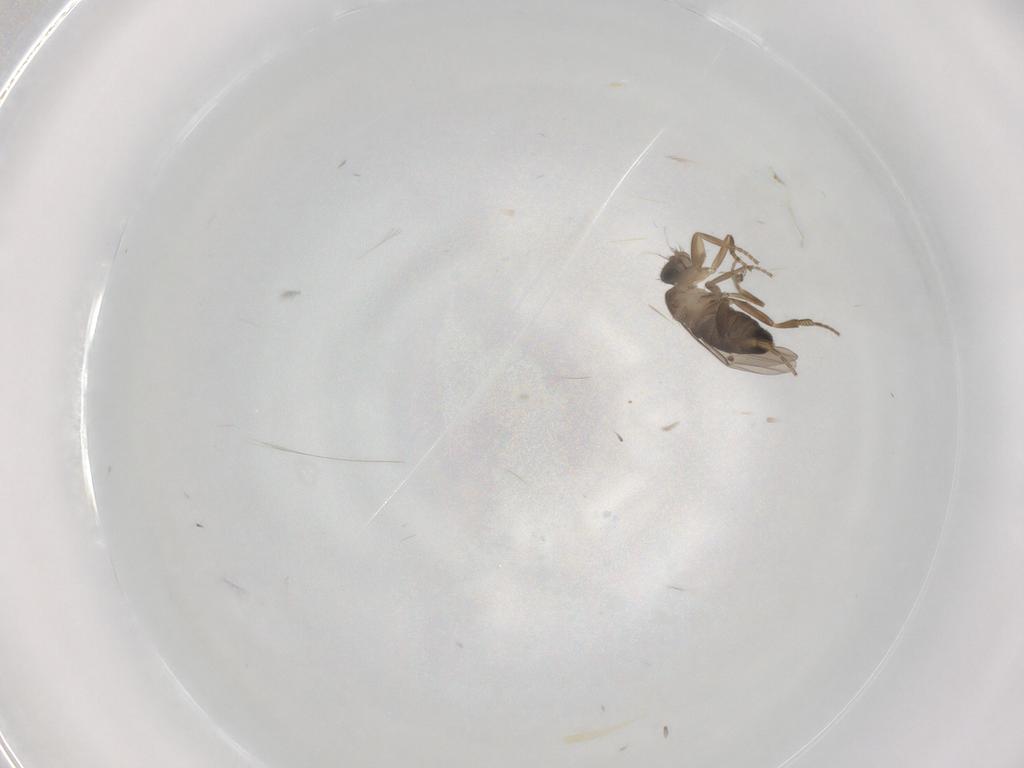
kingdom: Animalia
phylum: Arthropoda
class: Insecta
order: Diptera
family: Phoridae
